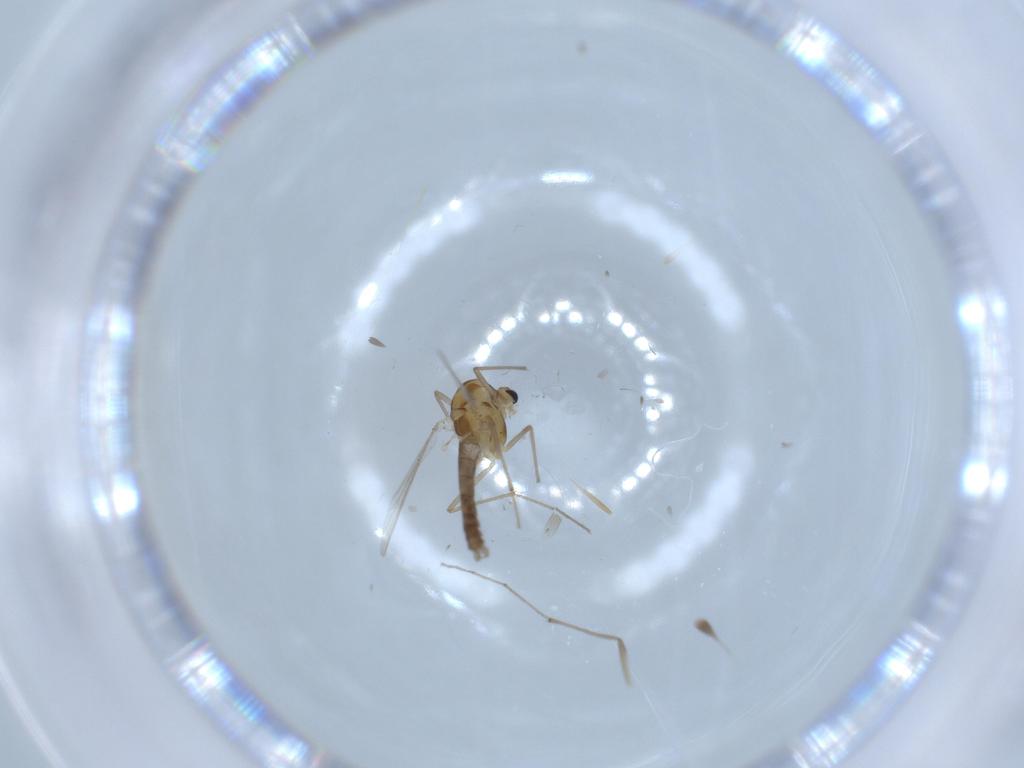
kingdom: Animalia
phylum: Arthropoda
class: Insecta
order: Diptera
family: Chironomidae
